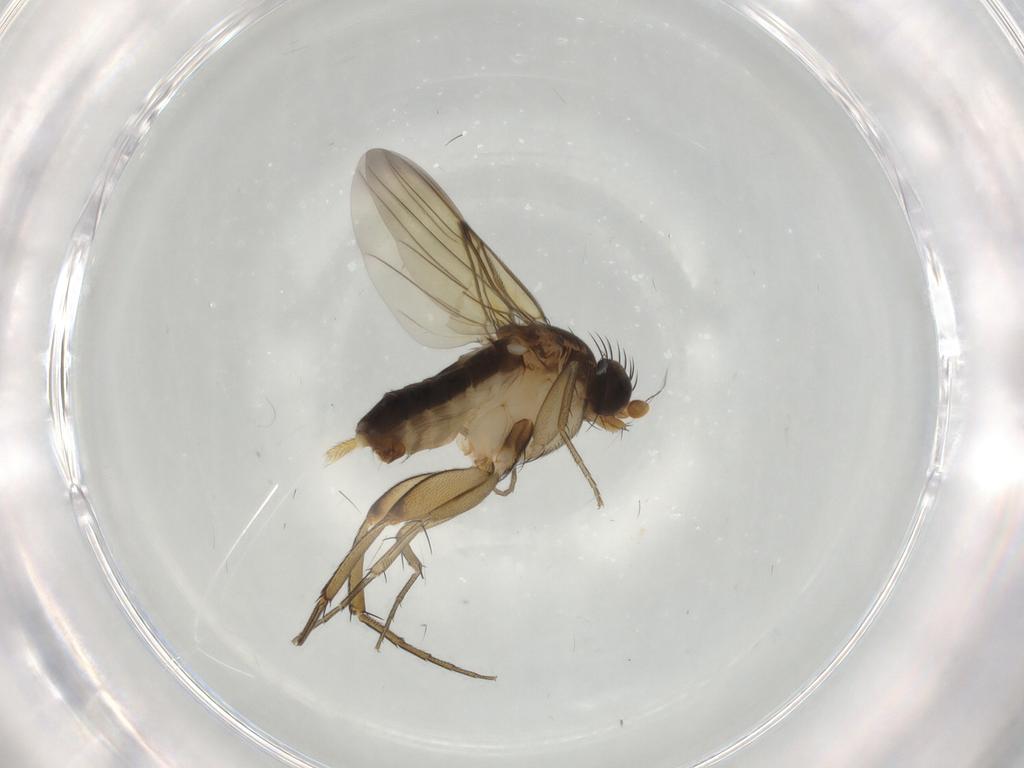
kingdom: Animalia
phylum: Arthropoda
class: Insecta
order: Diptera
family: Phoridae
